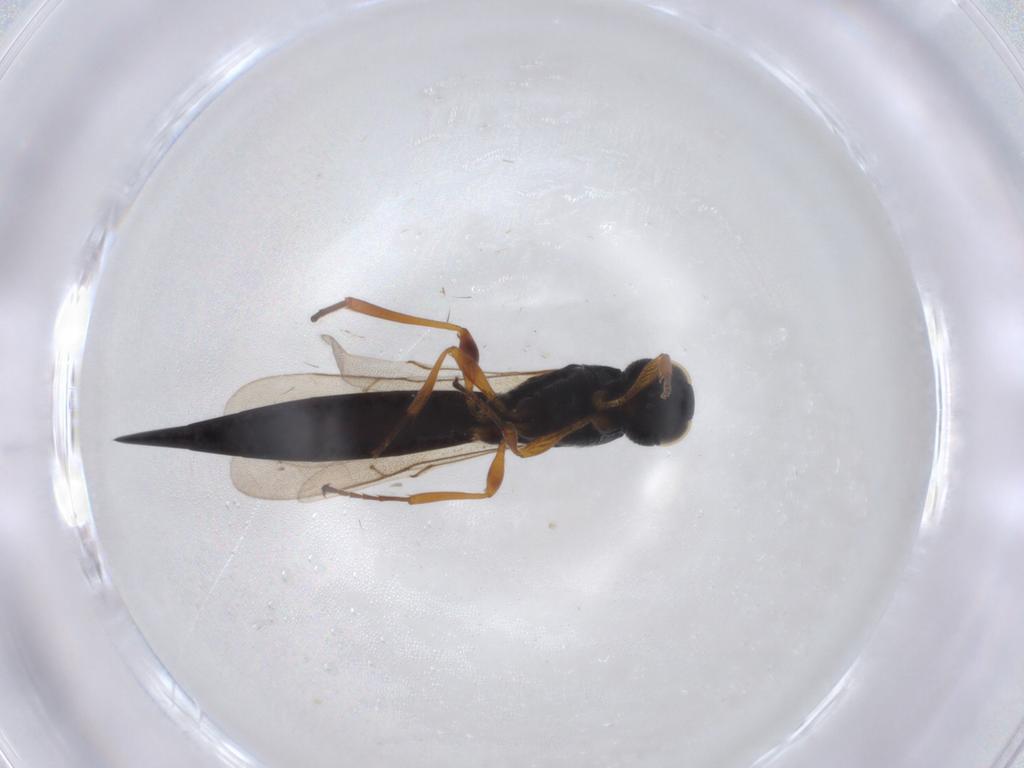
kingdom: Animalia
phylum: Arthropoda
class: Insecta
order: Hymenoptera
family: Scelionidae
